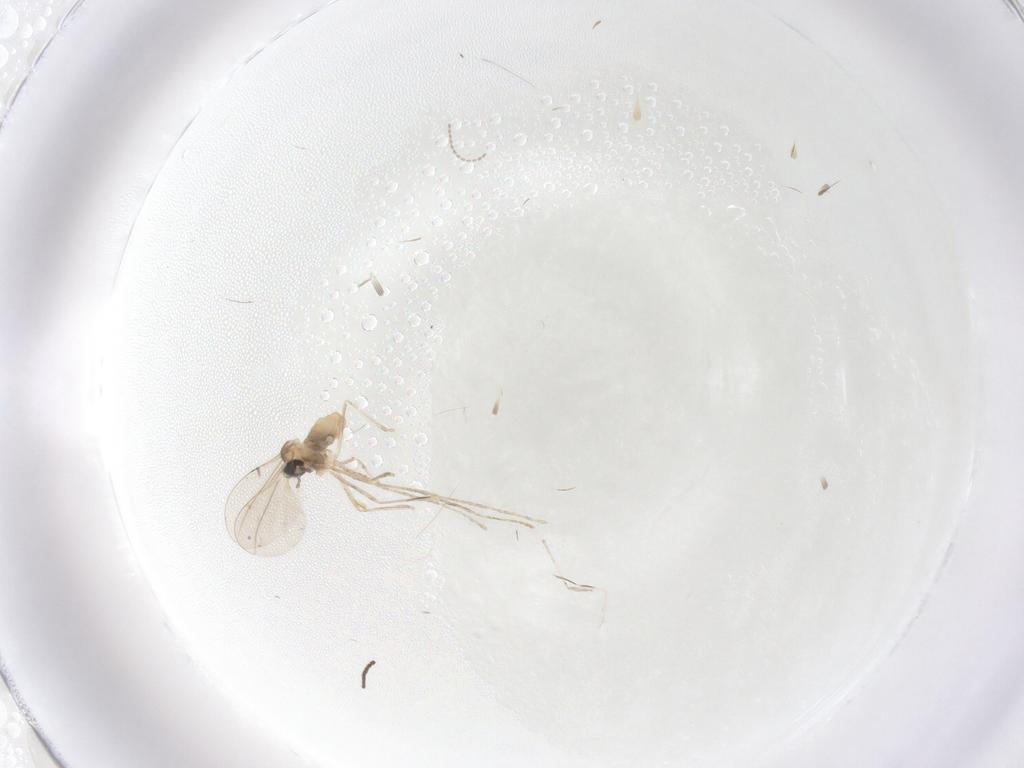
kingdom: Animalia
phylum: Arthropoda
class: Insecta
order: Diptera
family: Sciaridae
